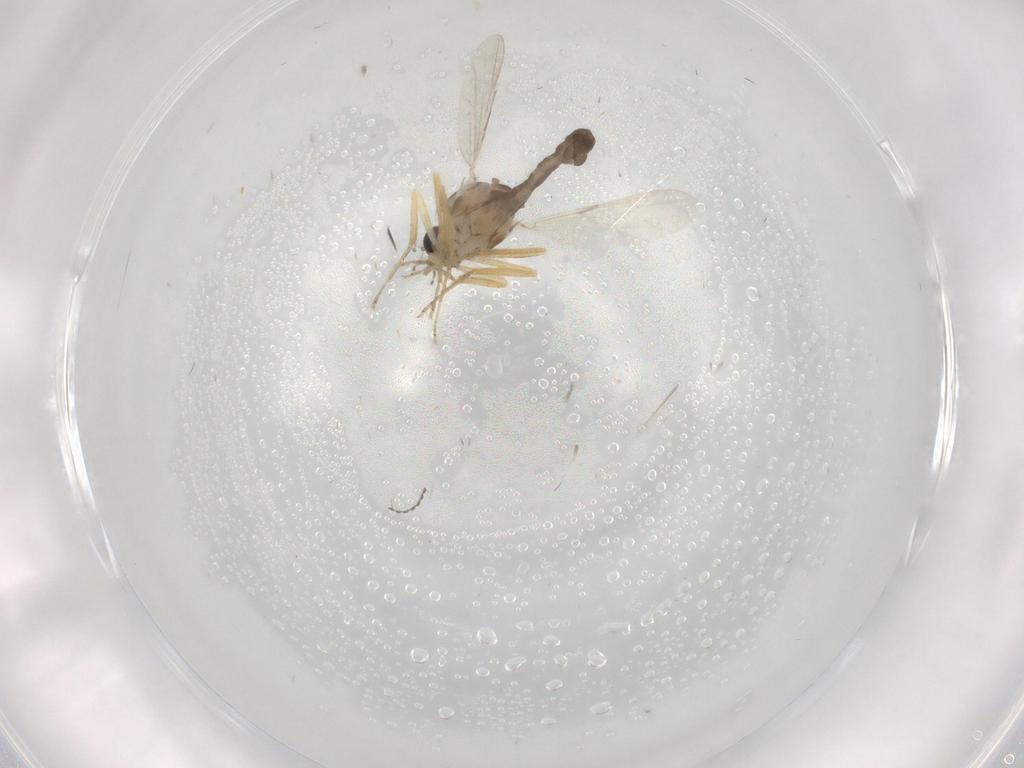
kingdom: Animalia
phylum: Arthropoda
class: Insecta
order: Diptera
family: Ceratopogonidae
